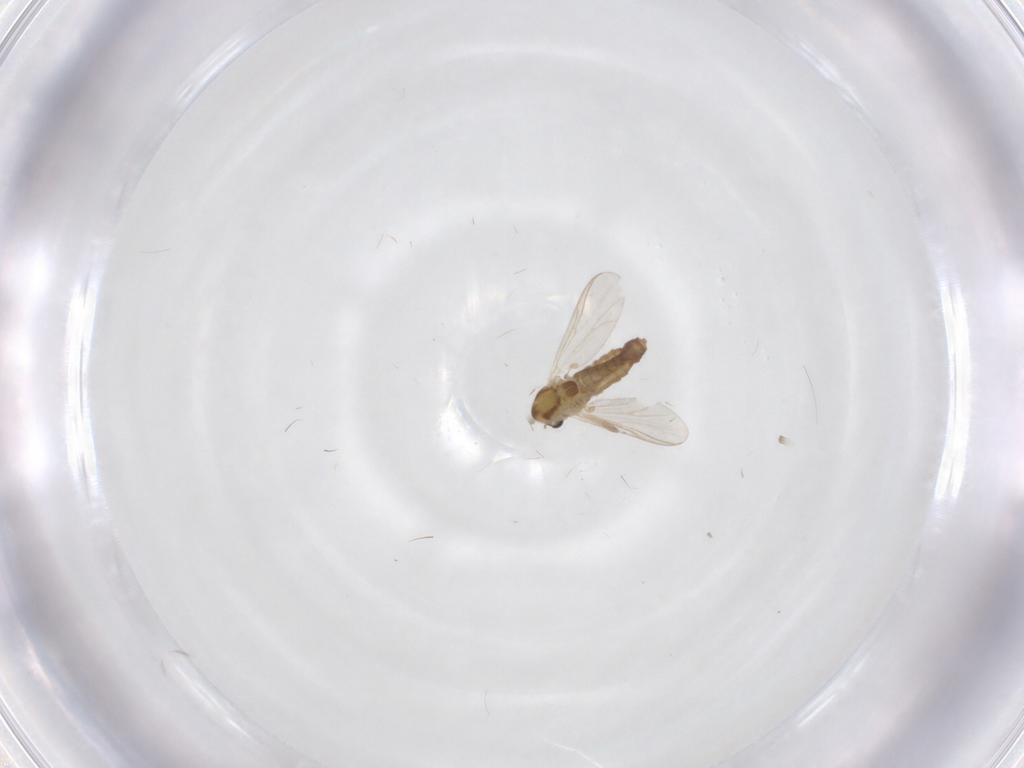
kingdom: Animalia
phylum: Arthropoda
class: Insecta
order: Diptera
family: Chironomidae
